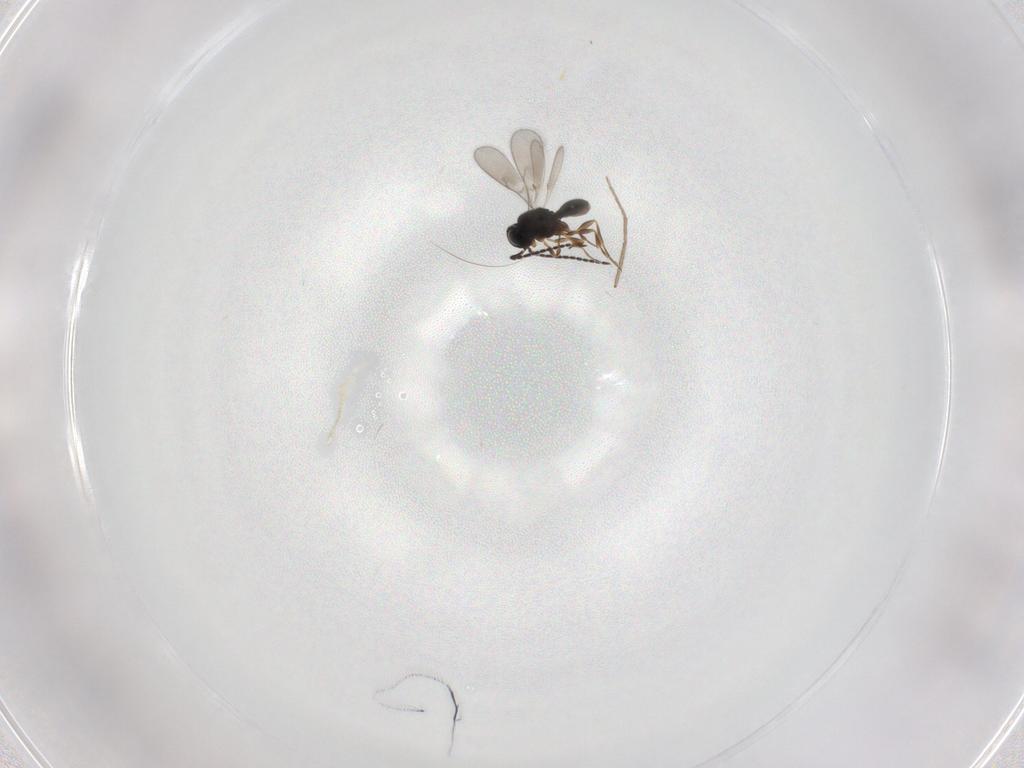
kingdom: Animalia
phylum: Arthropoda
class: Insecta
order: Hymenoptera
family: Scelionidae
